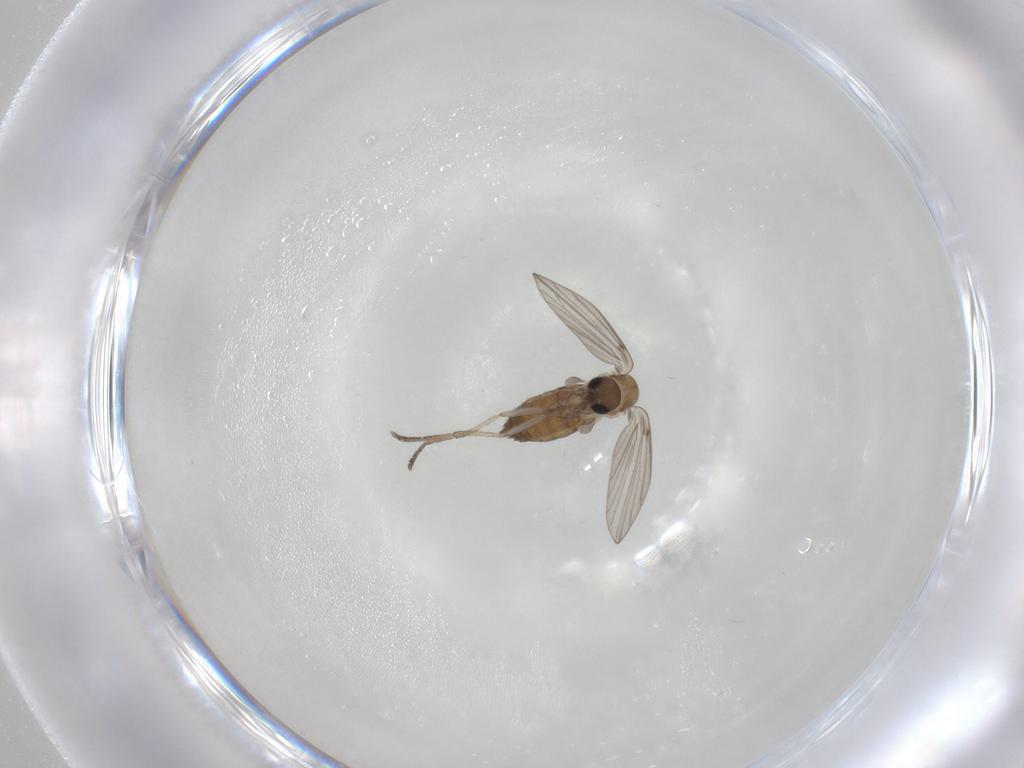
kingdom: Animalia
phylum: Arthropoda
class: Insecta
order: Diptera
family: Psychodidae
